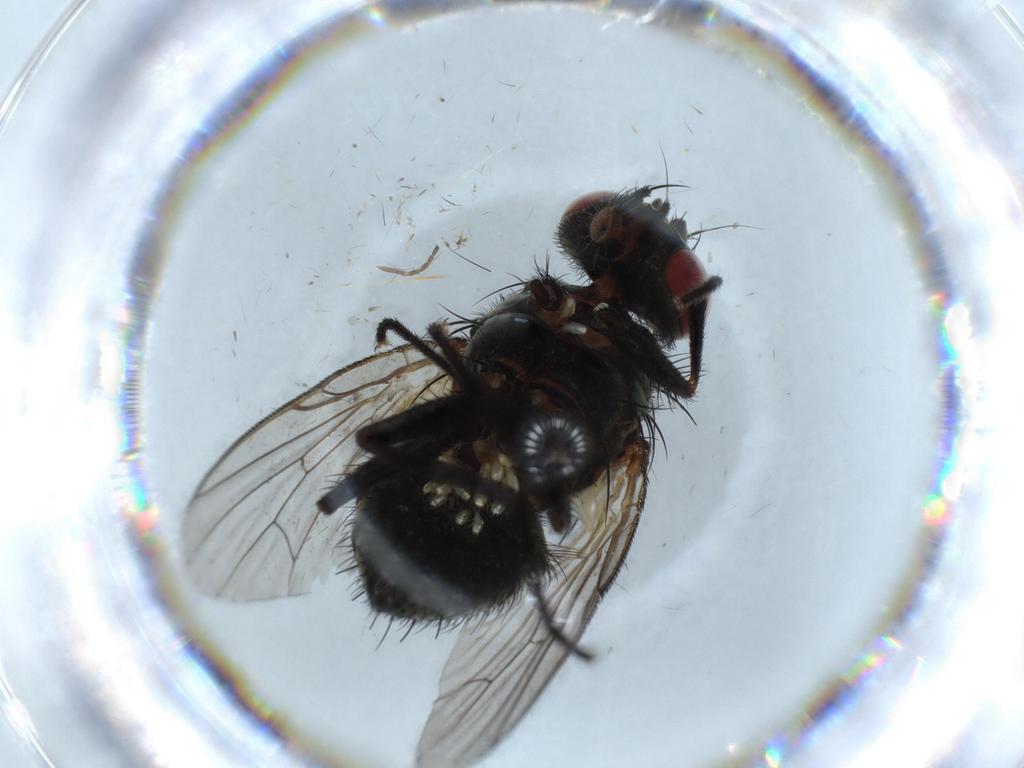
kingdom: Animalia
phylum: Arthropoda
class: Insecta
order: Diptera
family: Muscidae
